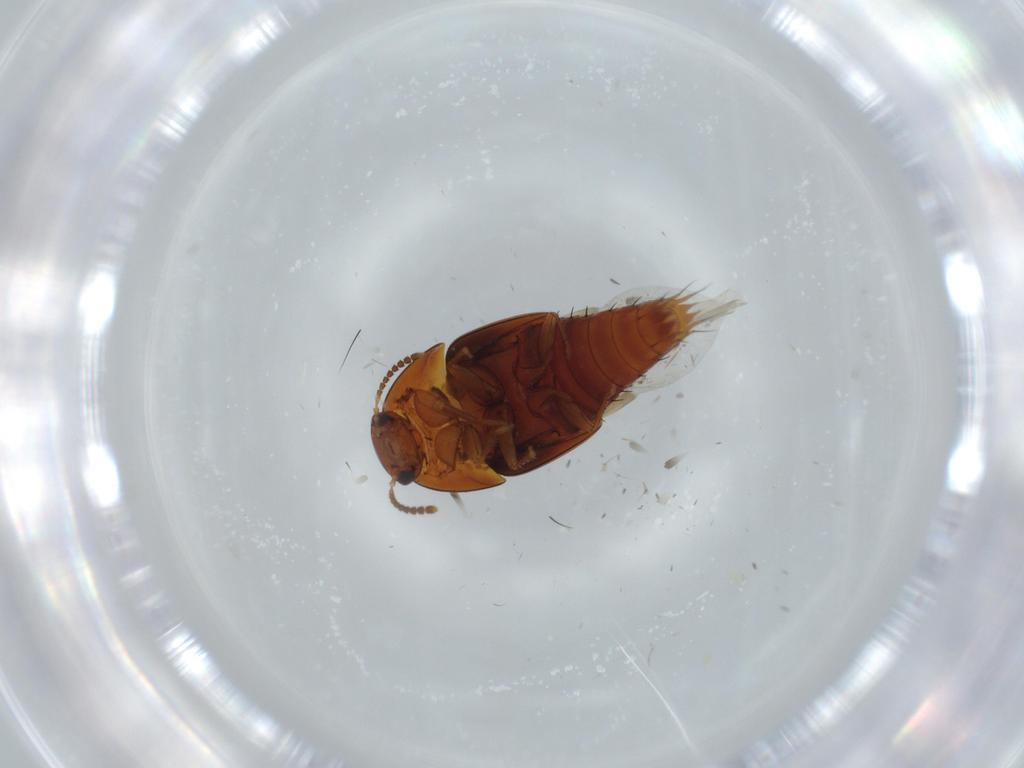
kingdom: Animalia
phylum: Arthropoda
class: Insecta
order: Coleoptera
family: Staphylinidae
